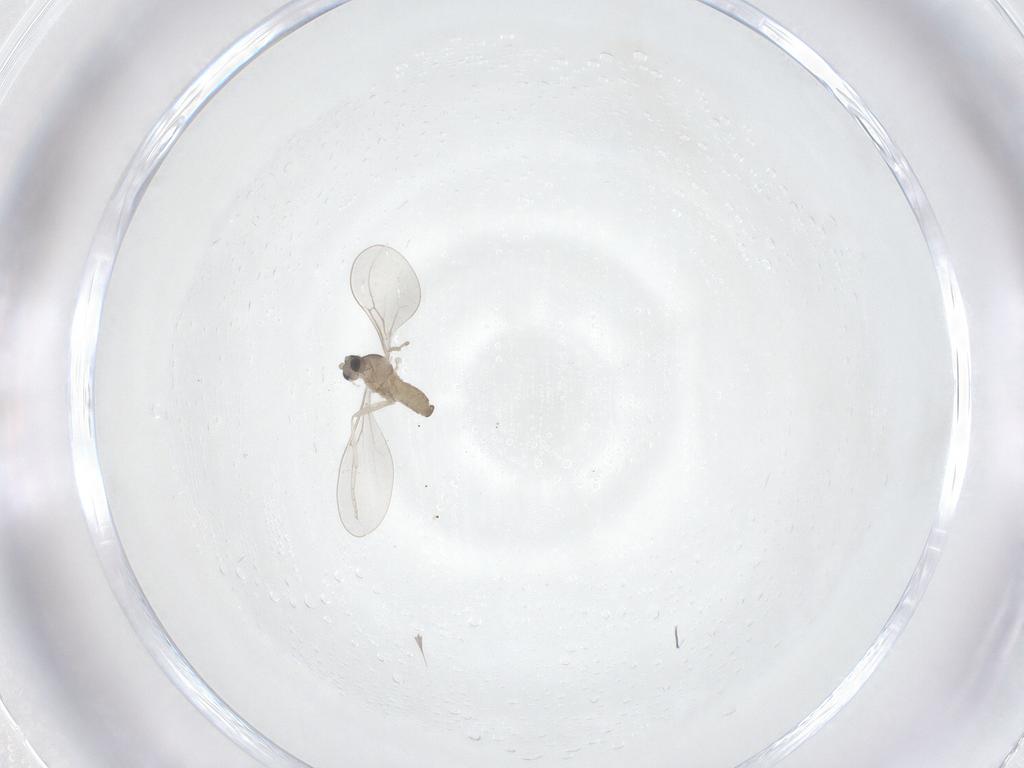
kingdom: Animalia
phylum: Arthropoda
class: Insecta
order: Diptera
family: Cecidomyiidae
